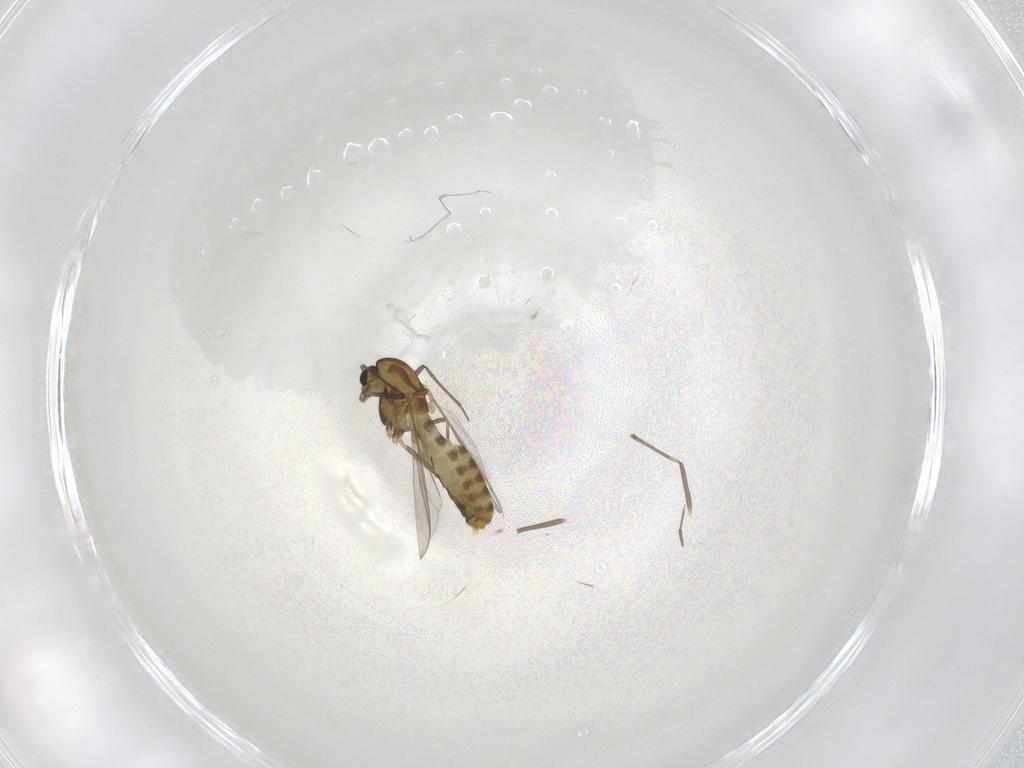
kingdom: Animalia
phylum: Arthropoda
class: Insecta
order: Diptera
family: Chironomidae
